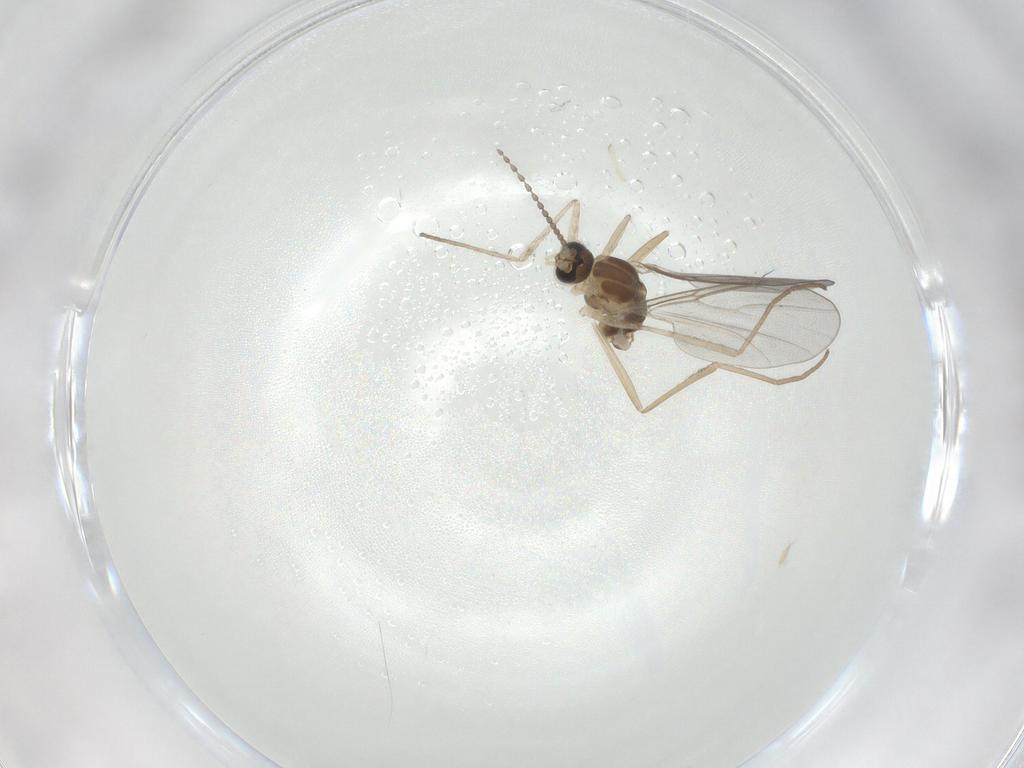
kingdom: Animalia
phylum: Arthropoda
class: Insecta
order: Diptera
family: Cecidomyiidae
